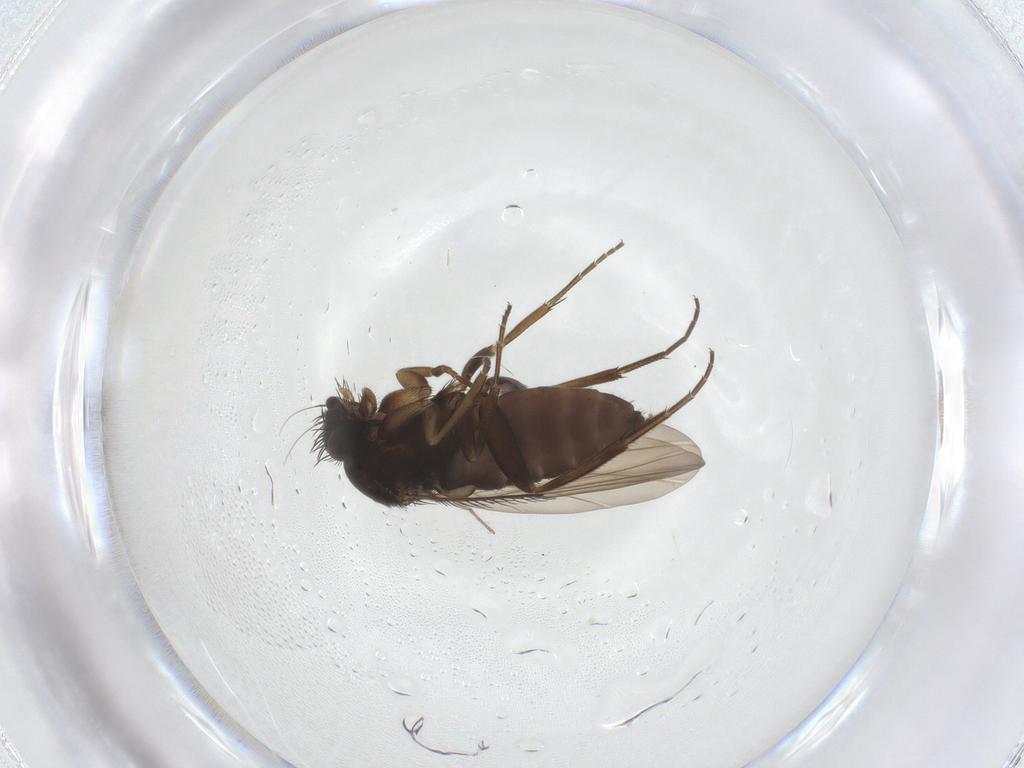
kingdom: Animalia
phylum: Arthropoda
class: Insecta
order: Diptera
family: Phoridae
